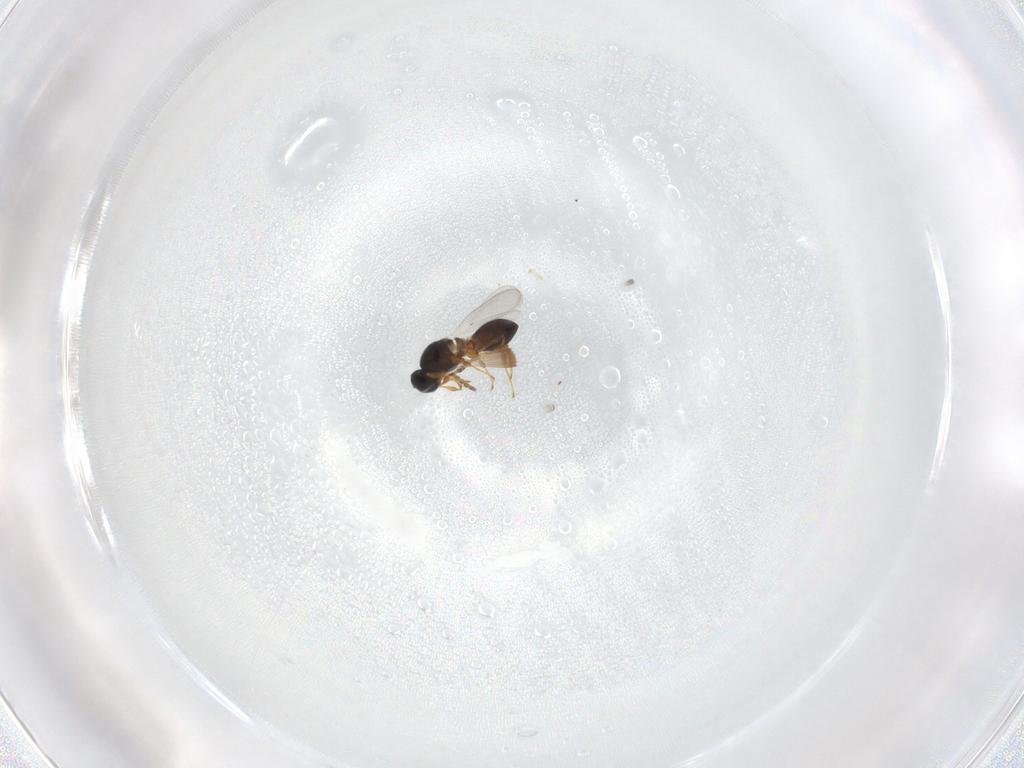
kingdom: Animalia
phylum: Arthropoda
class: Insecta
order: Hymenoptera
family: Platygastridae
